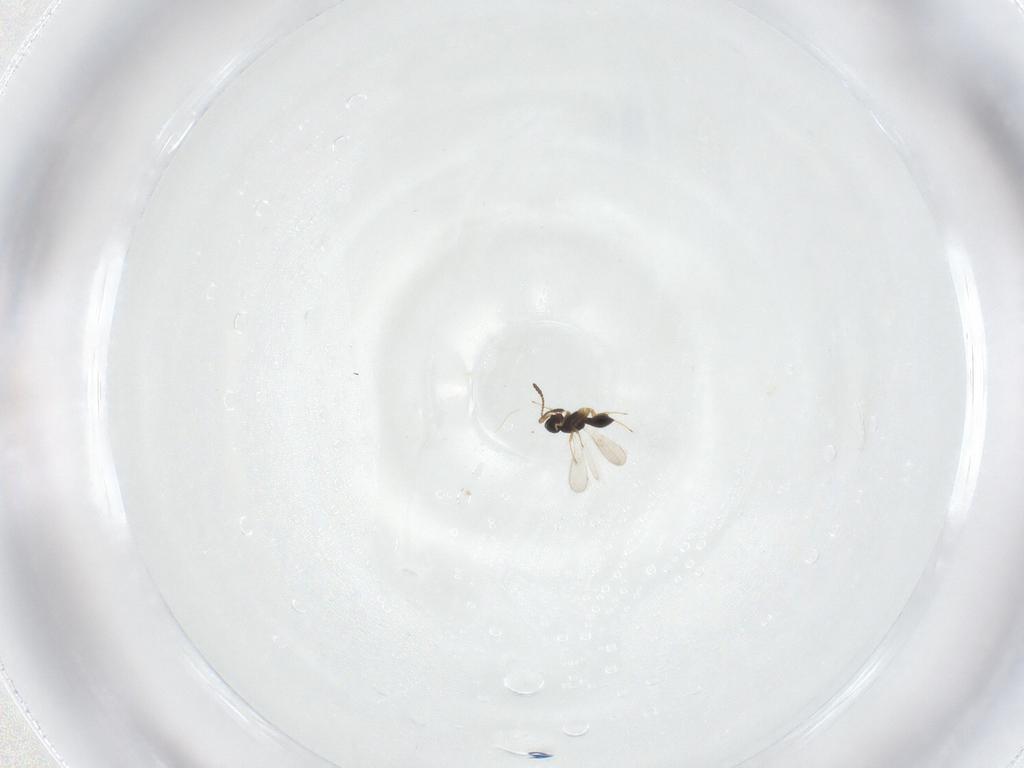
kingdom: Animalia
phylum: Arthropoda
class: Insecta
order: Hymenoptera
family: Scelionidae
